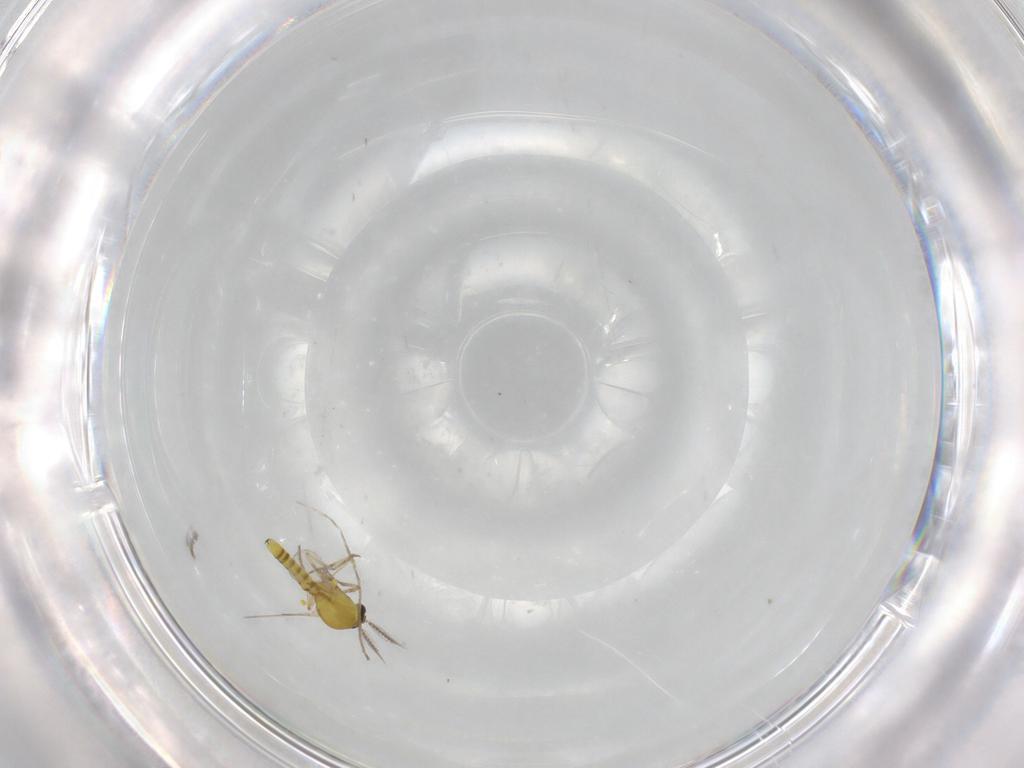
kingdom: Animalia
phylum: Arthropoda
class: Insecta
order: Diptera
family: Ceratopogonidae
